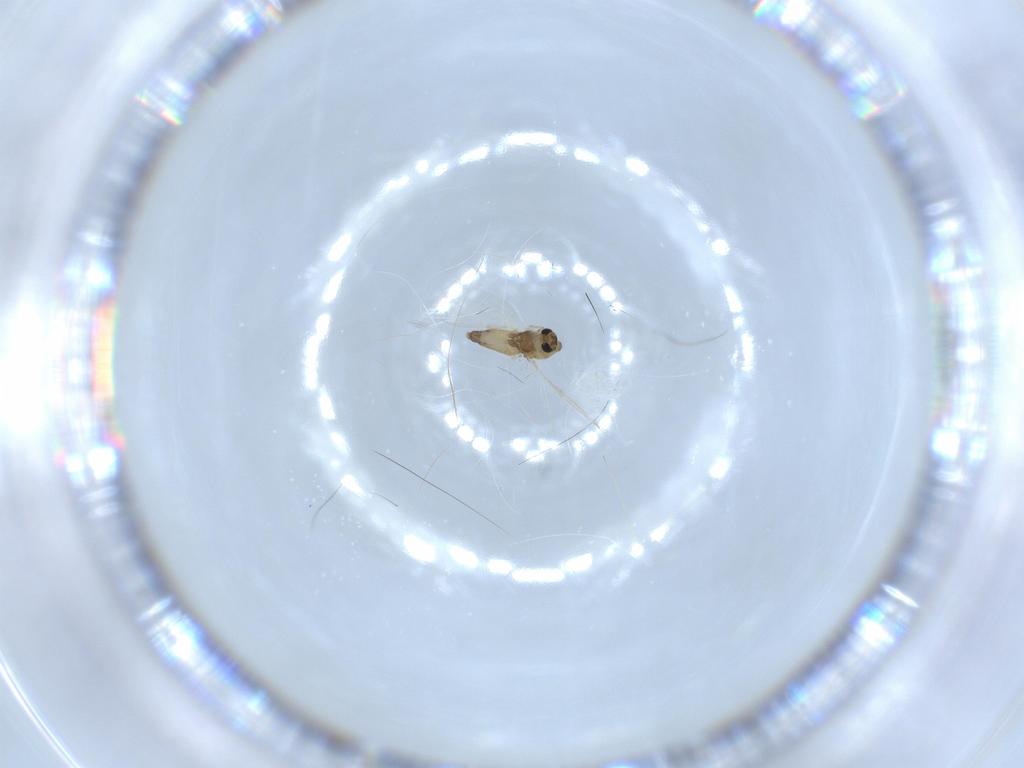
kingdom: Animalia
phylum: Arthropoda
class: Insecta
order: Diptera
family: Chironomidae
